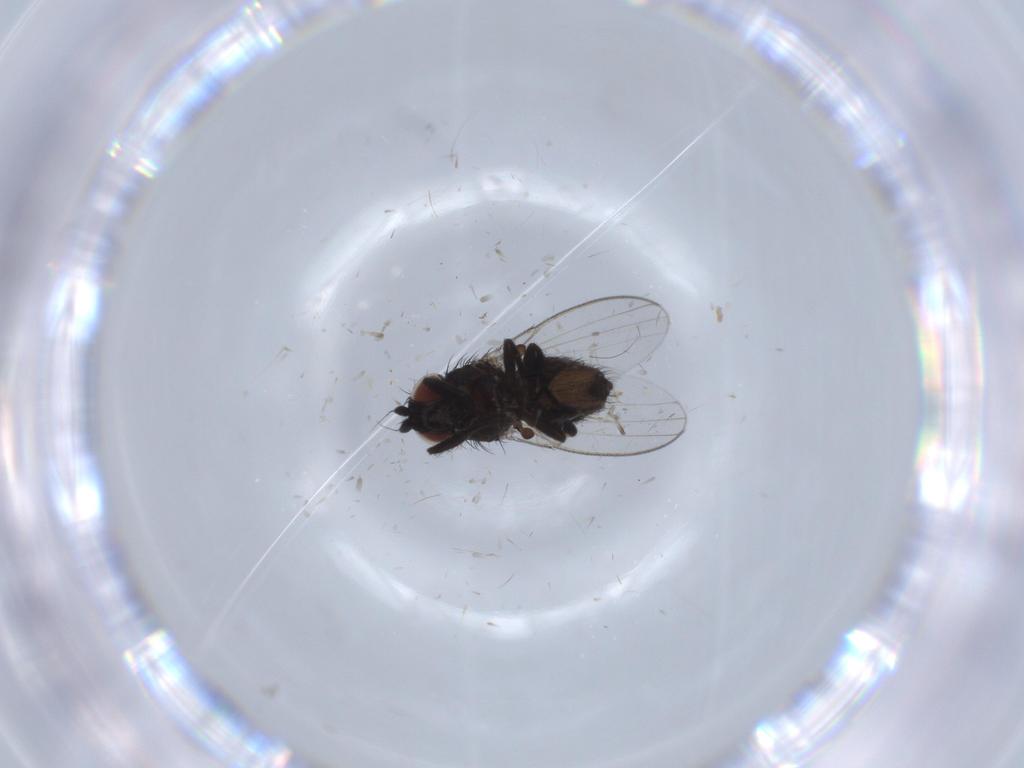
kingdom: Animalia
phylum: Arthropoda
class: Insecta
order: Diptera
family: Milichiidae
